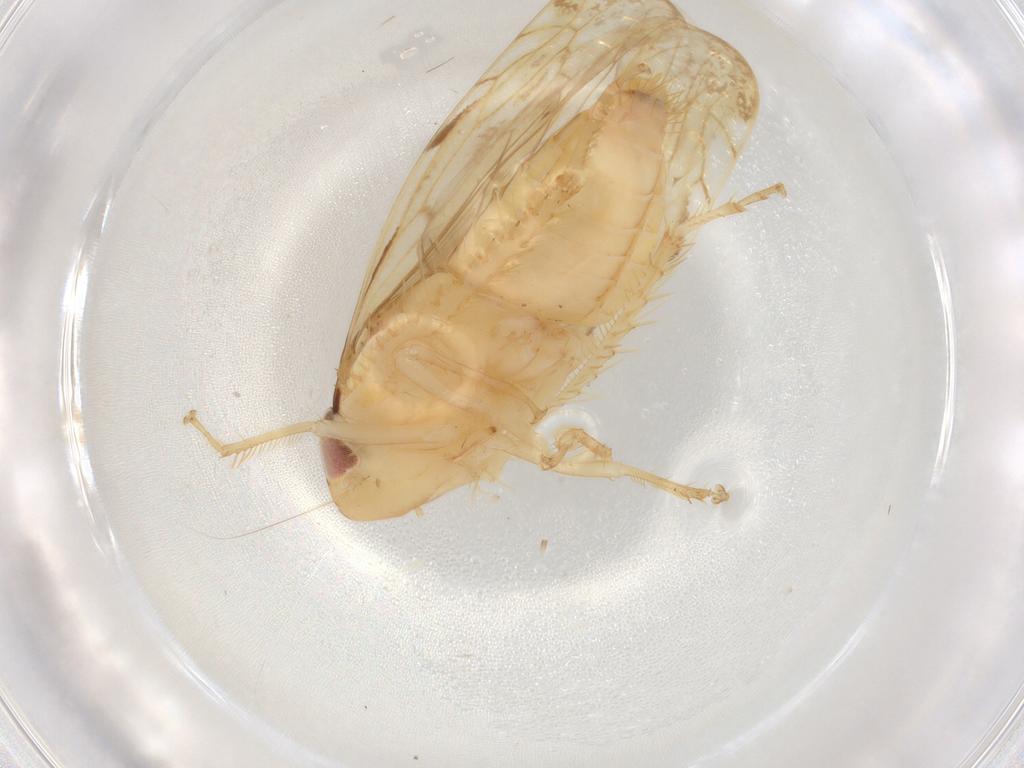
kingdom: Animalia
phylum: Arthropoda
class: Insecta
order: Hemiptera
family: Cicadellidae
